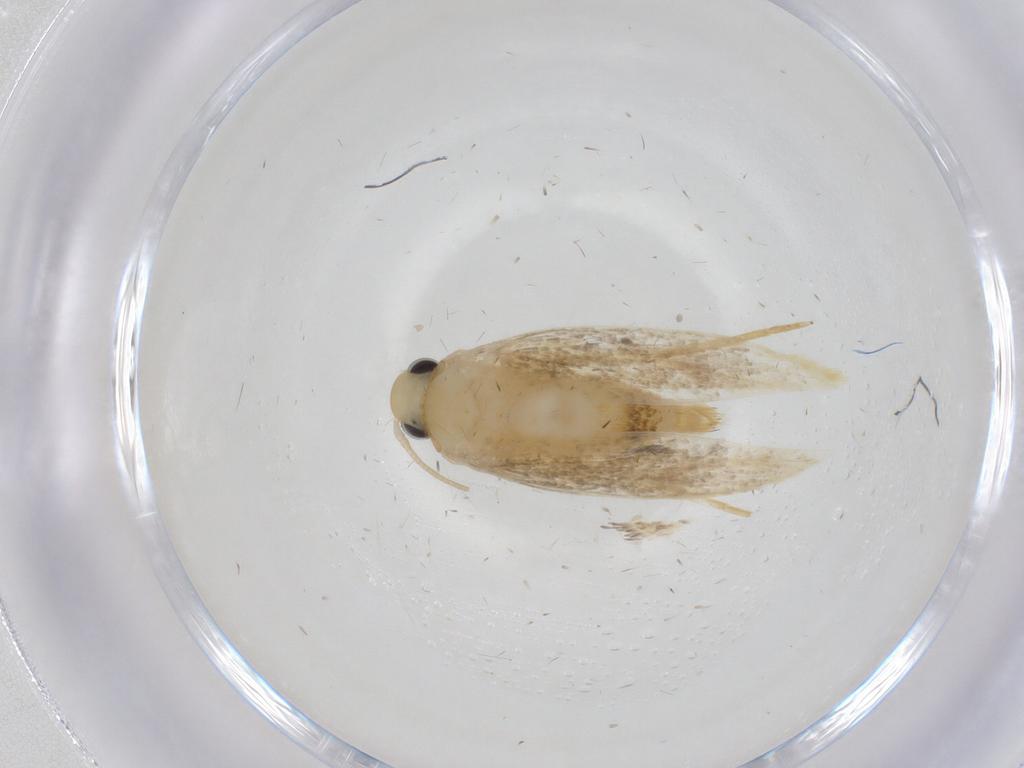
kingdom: Animalia
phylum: Arthropoda
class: Insecta
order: Lepidoptera
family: Erebidae
